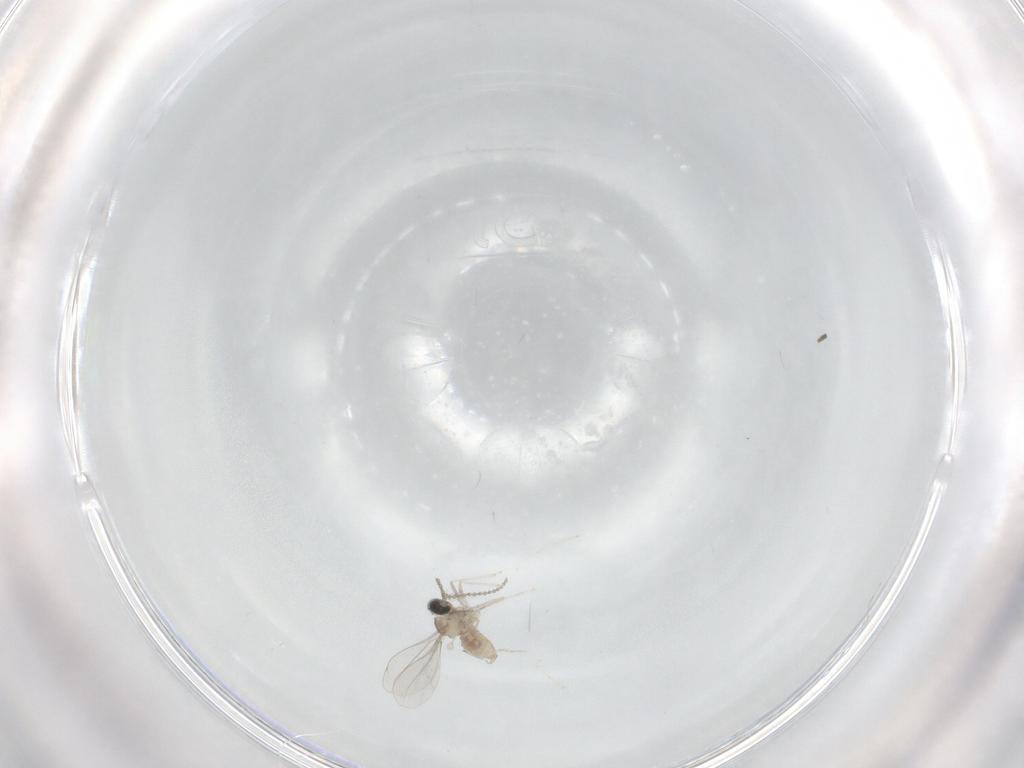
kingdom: Animalia
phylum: Arthropoda
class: Insecta
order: Diptera
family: Sciaridae
